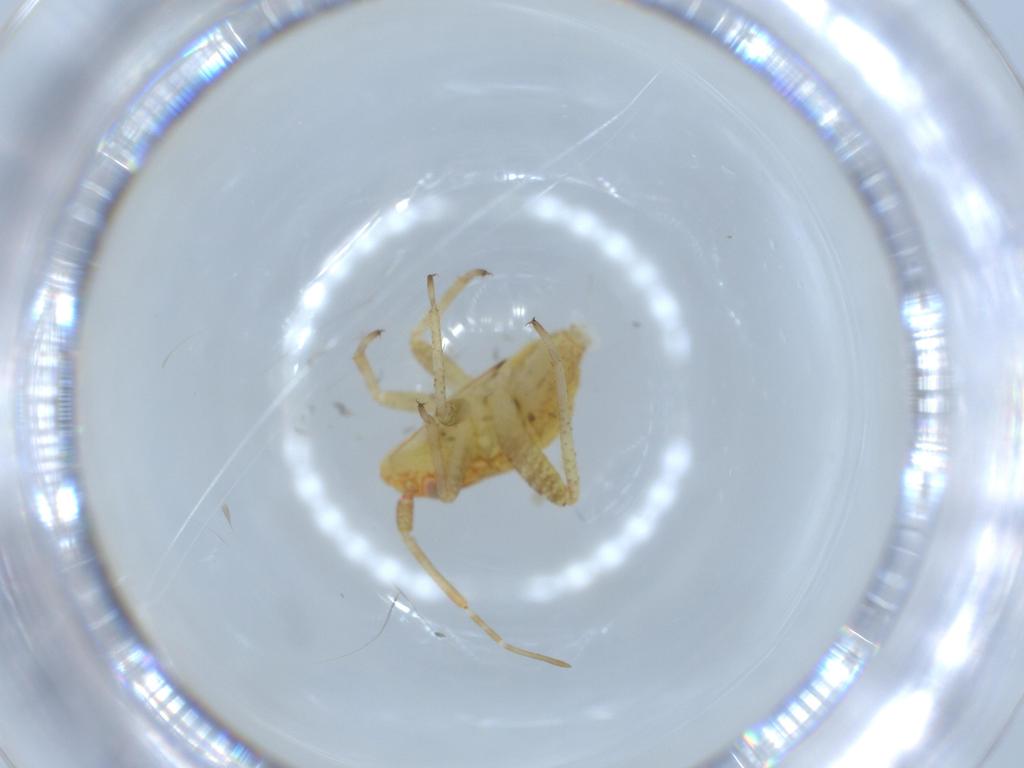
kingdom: Animalia
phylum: Arthropoda
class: Insecta
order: Hemiptera
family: Miridae
